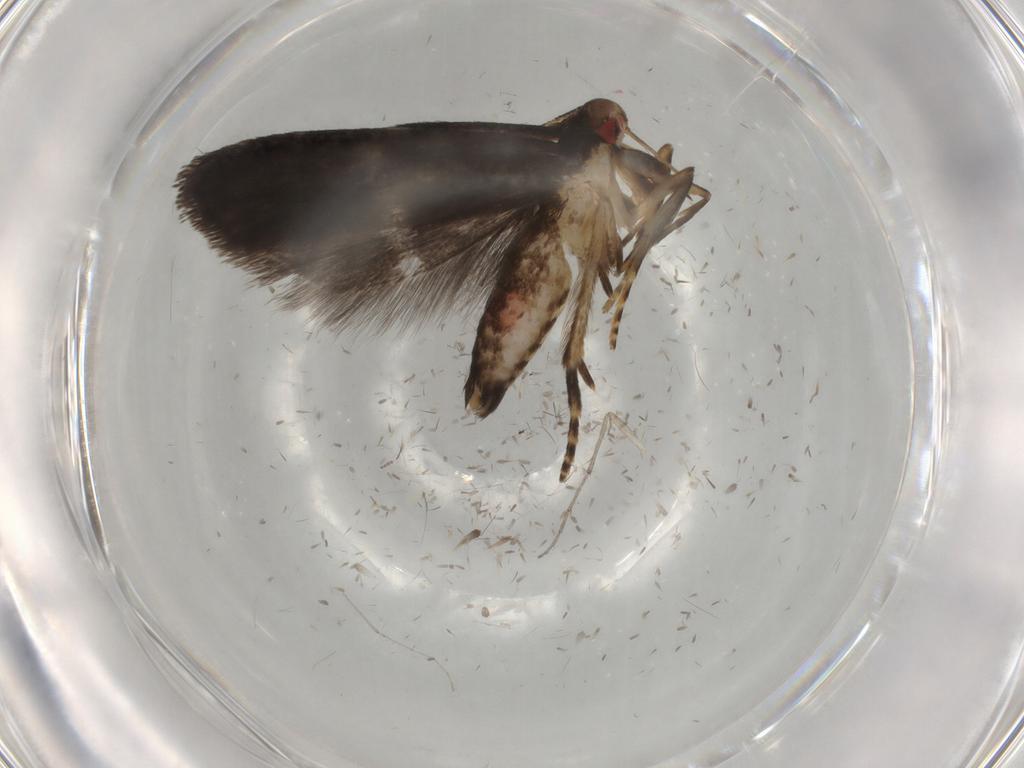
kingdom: Animalia
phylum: Arthropoda
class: Insecta
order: Lepidoptera
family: Gelechiidae
